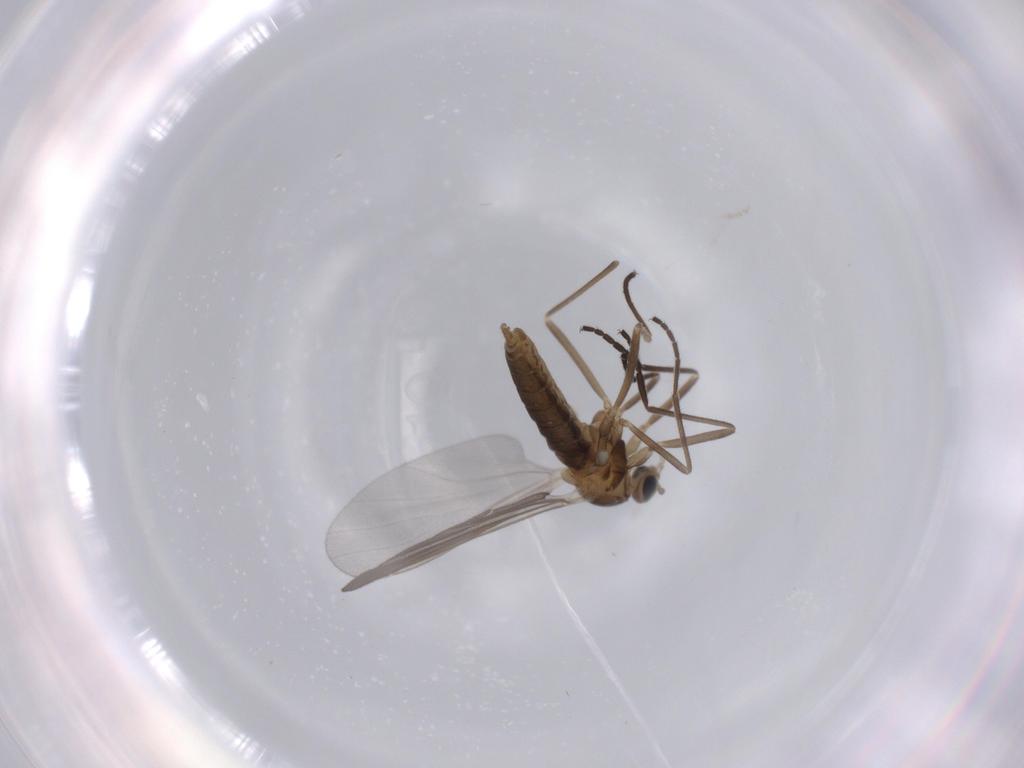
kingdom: Animalia
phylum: Arthropoda
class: Insecta
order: Diptera
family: Cecidomyiidae
